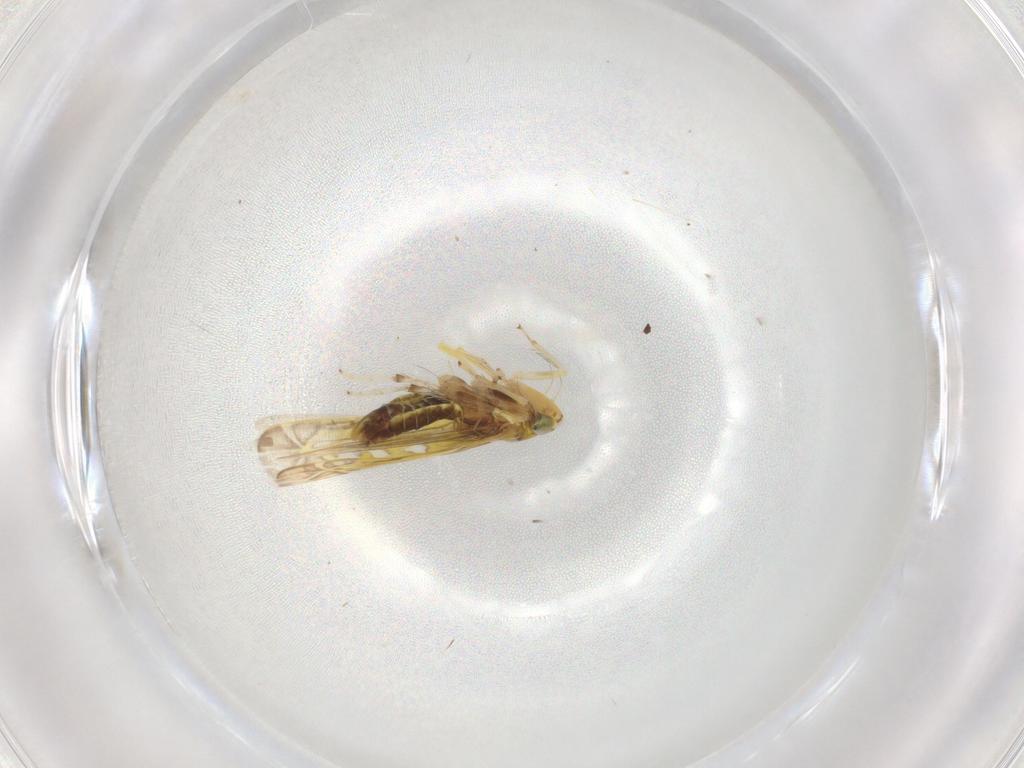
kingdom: Animalia
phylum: Arthropoda
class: Insecta
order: Hemiptera
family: Cicadellidae
